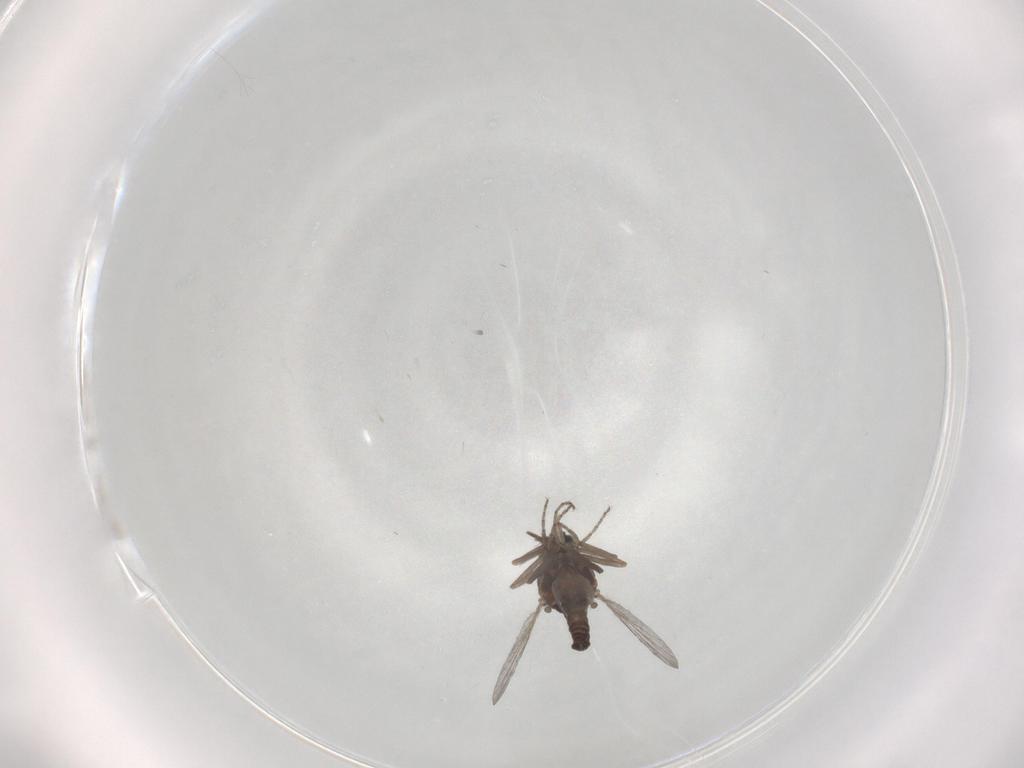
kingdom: Animalia
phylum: Arthropoda
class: Insecta
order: Diptera
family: Ceratopogonidae
